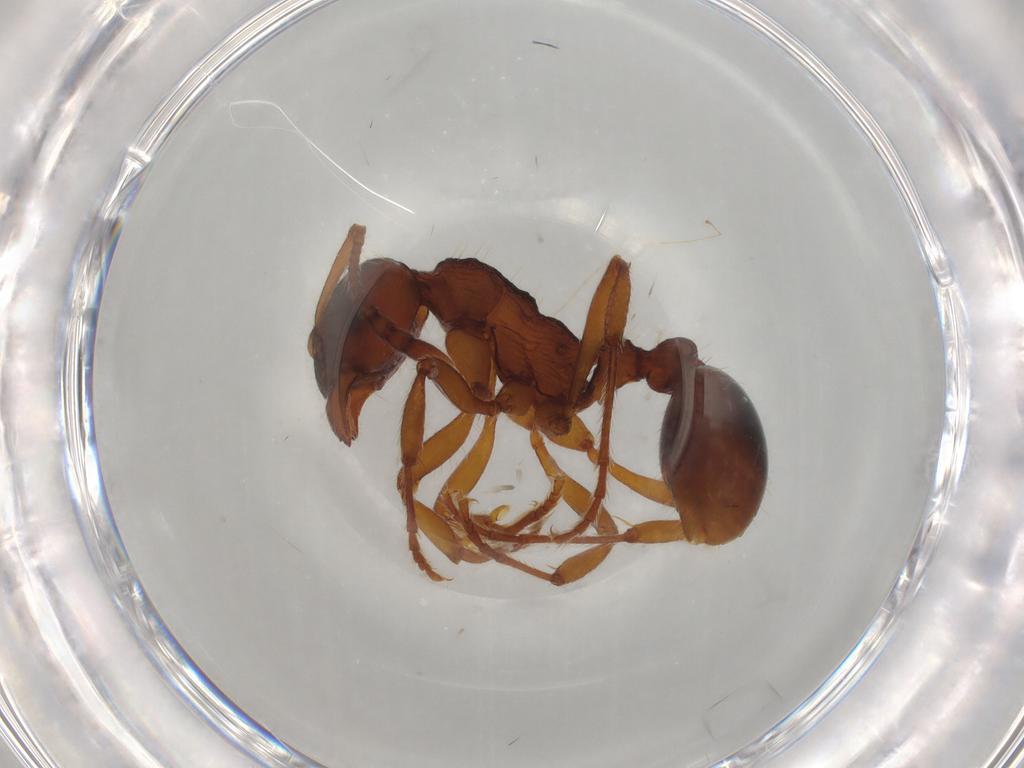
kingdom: Animalia
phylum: Arthropoda
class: Insecta
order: Hymenoptera
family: Formicidae
